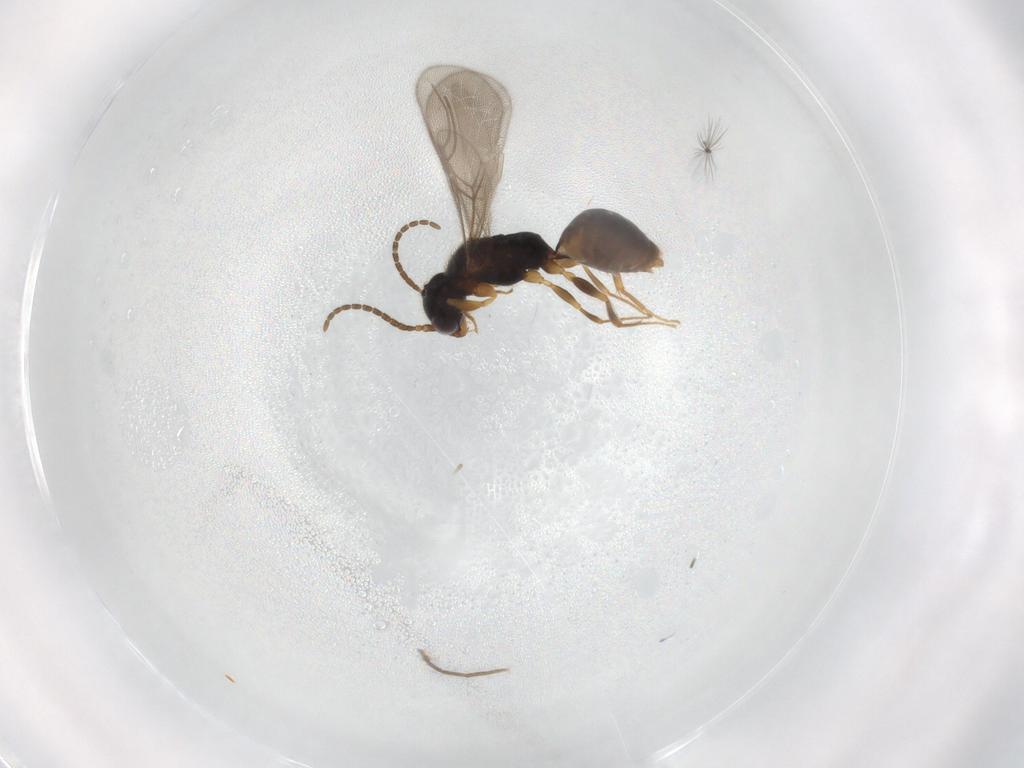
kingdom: Animalia
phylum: Arthropoda
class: Insecta
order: Hymenoptera
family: Bethylidae
